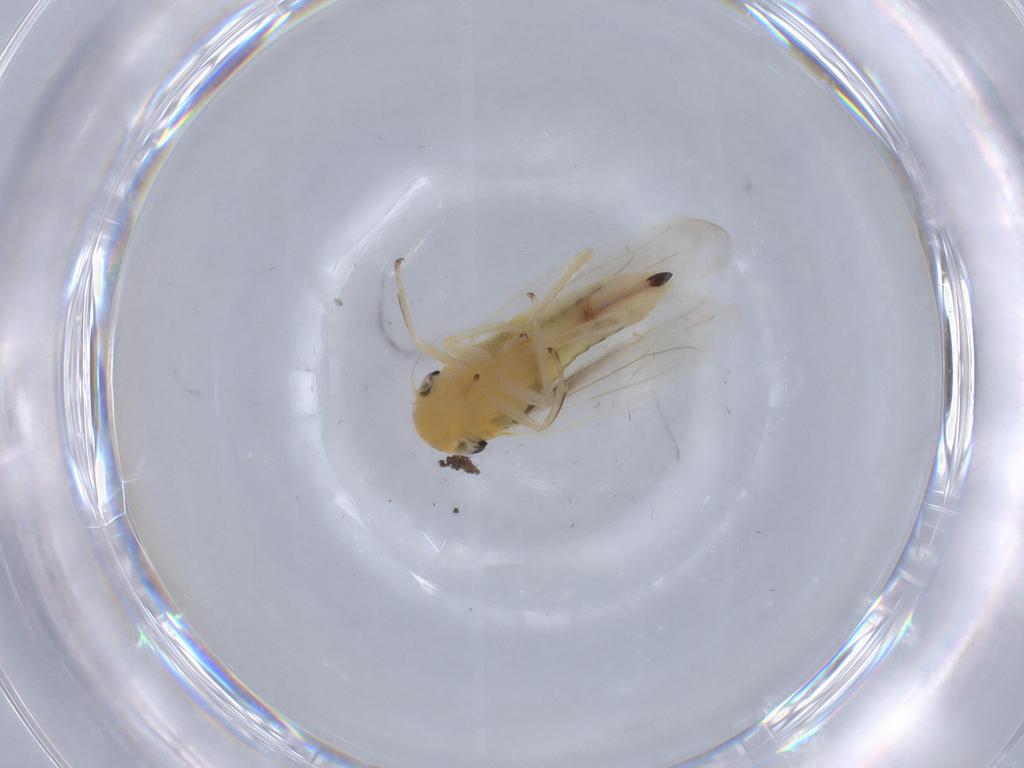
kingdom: Animalia
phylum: Arthropoda
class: Insecta
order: Hemiptera
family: Cicadellidae
